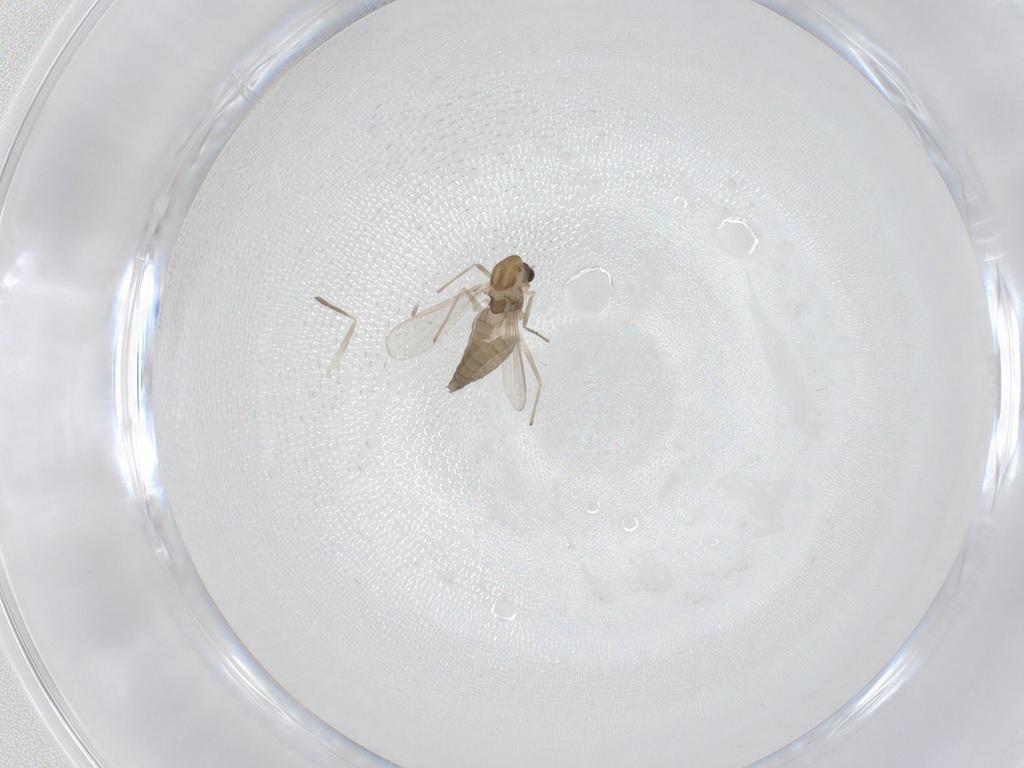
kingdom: Animalia
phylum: Arthropoda
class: Insecta
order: Diptera
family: Chironomidae
